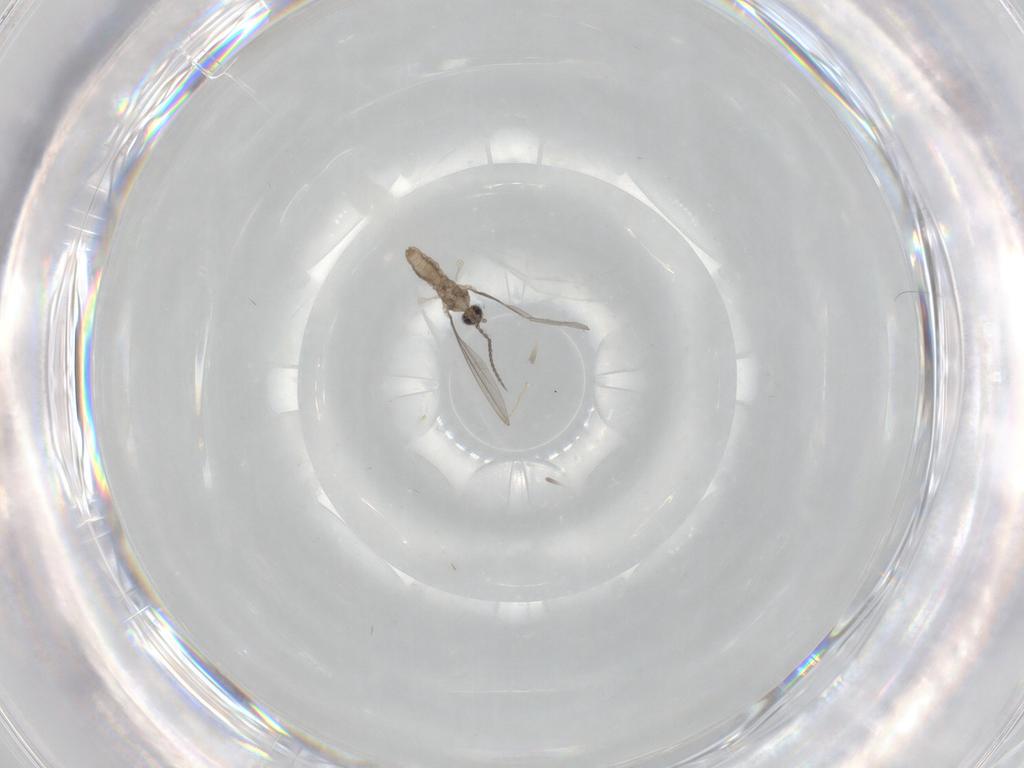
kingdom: Animalia
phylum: Arthropoda
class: Insecta
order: Diptera
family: Cecidomyiidae
